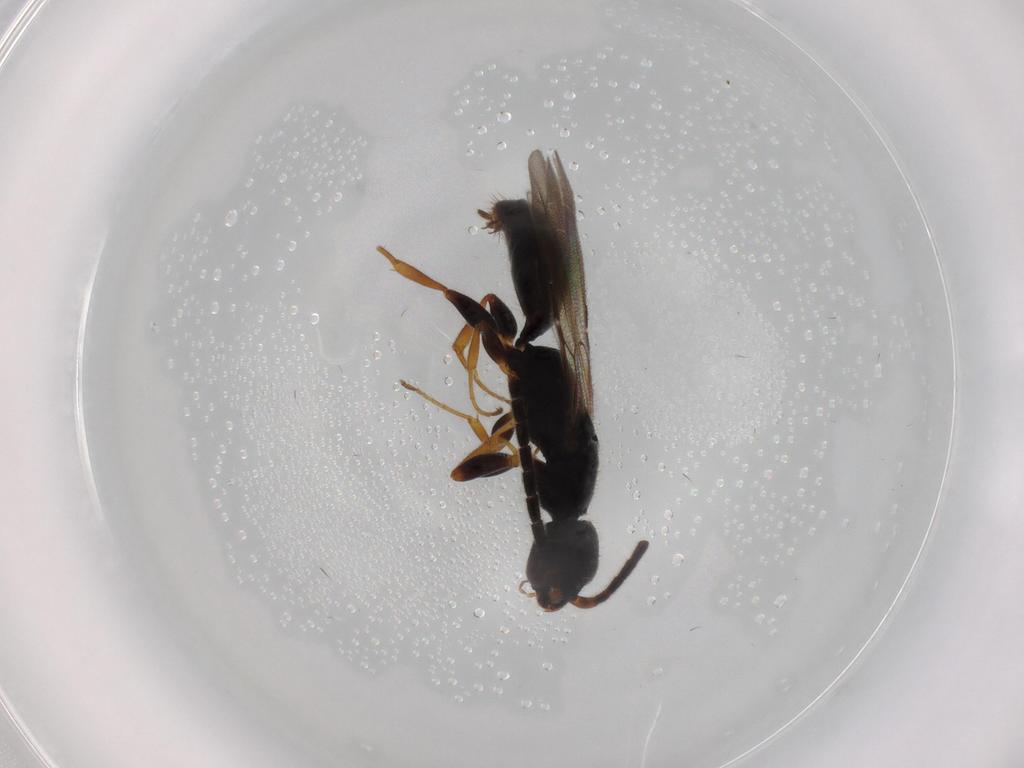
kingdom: Animalia
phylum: Arthropoda
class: Insecta
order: Hymenoptera
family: Bethylidae
